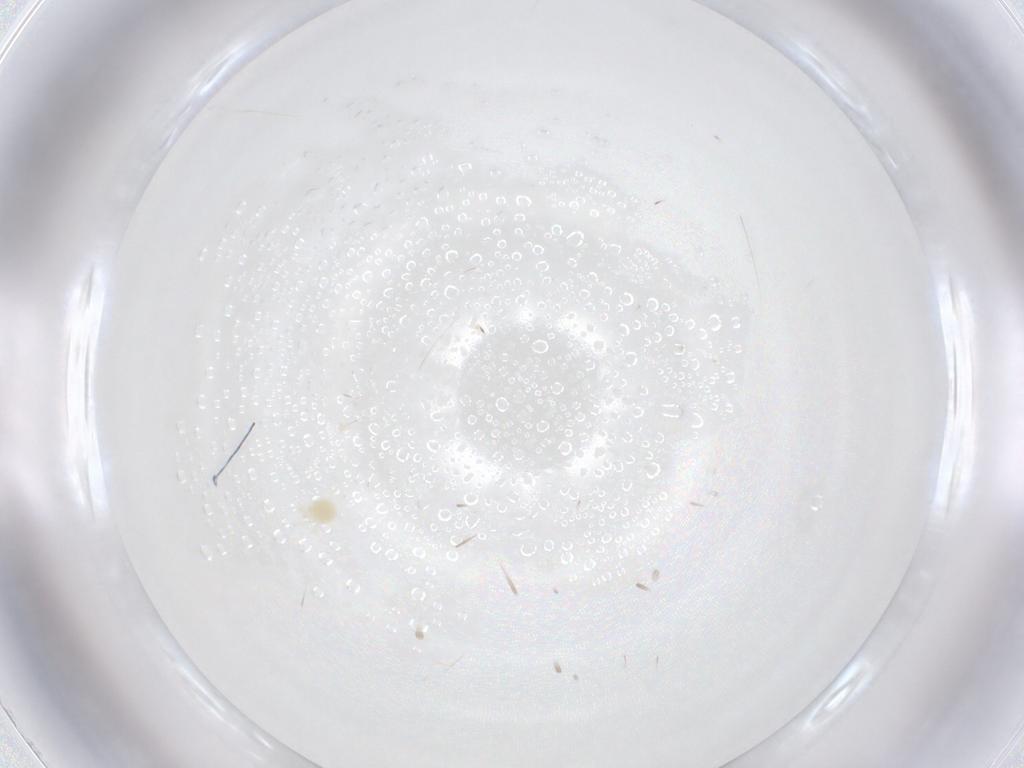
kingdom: Animalia
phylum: Arthropoda
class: Arachnida
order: Trombidiformes
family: Tetranychidae
